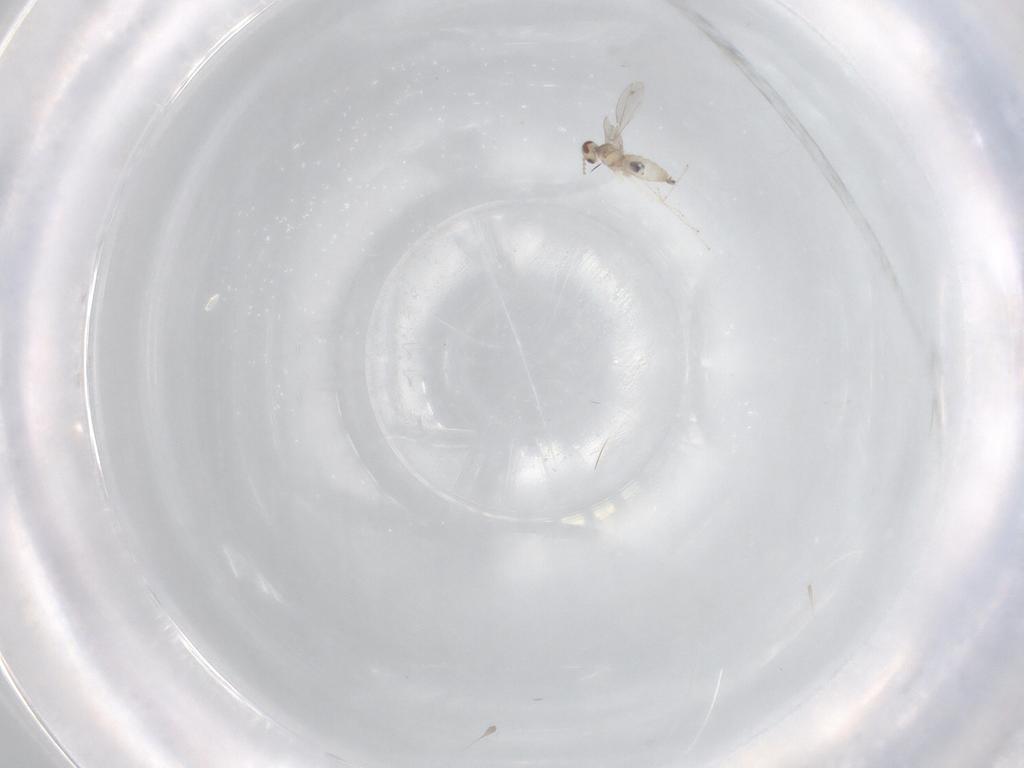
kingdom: Animalia
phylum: Arthropoda
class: Insecta
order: Diptera
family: Cecidomyiidae
